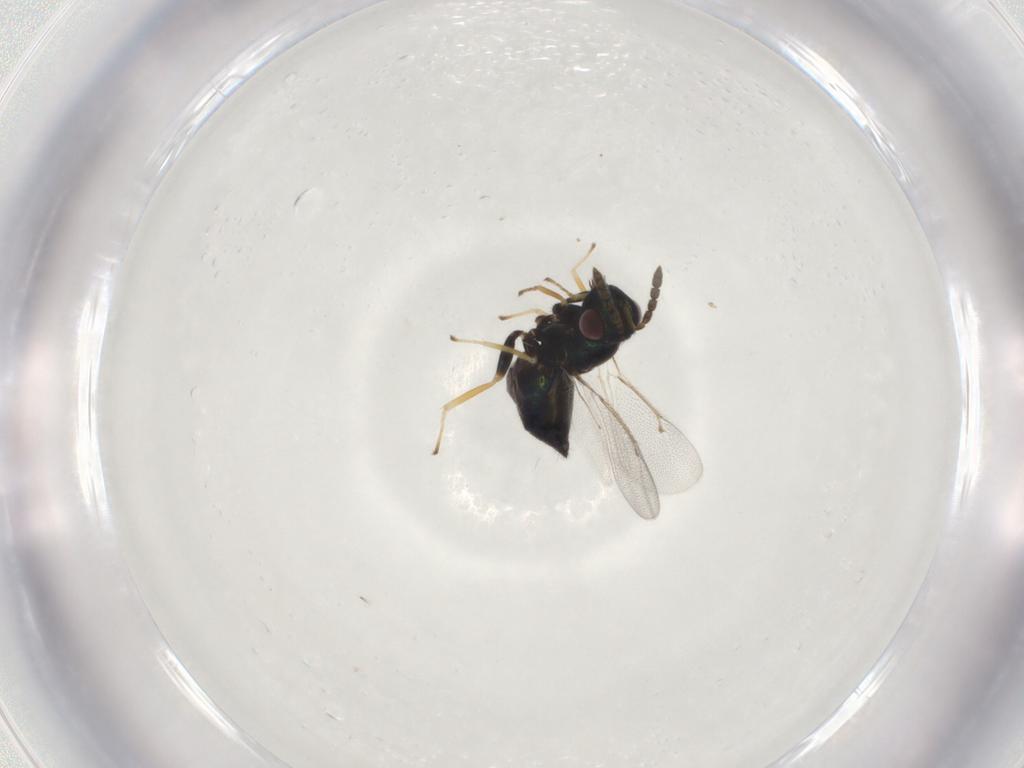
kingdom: Animalia
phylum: Arthropoda
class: Insecta
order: Hymenoptera
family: Eulophidae
